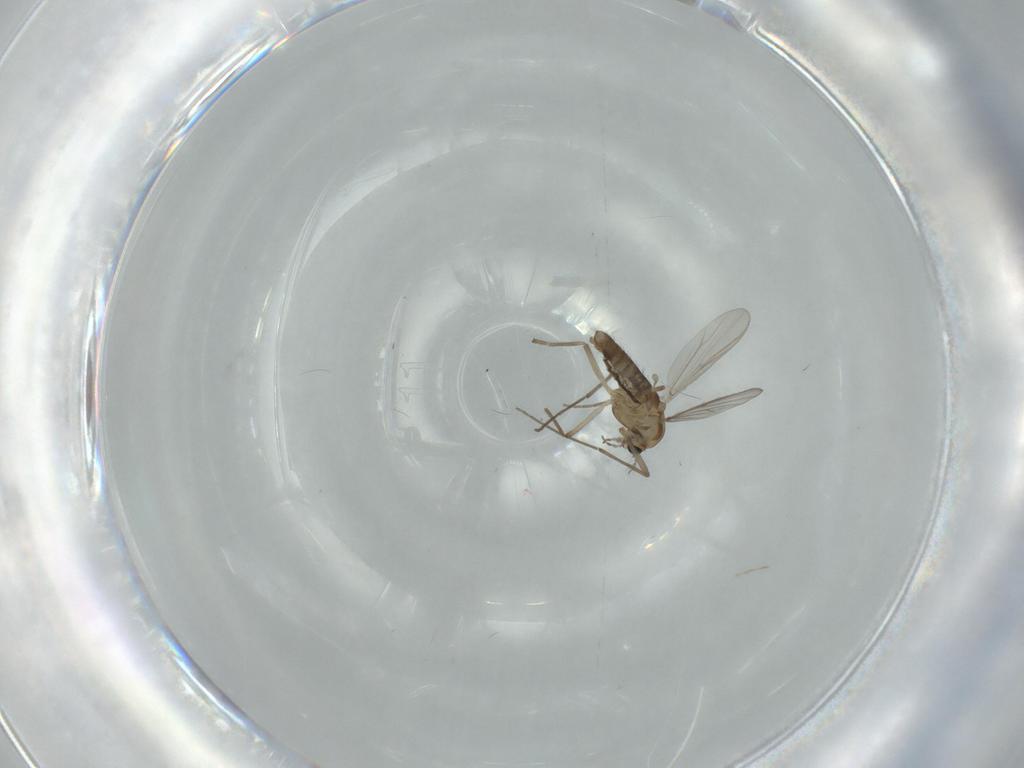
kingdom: Animalia
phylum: Arthropoda
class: Insecta
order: Diptera
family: Chironomidae
